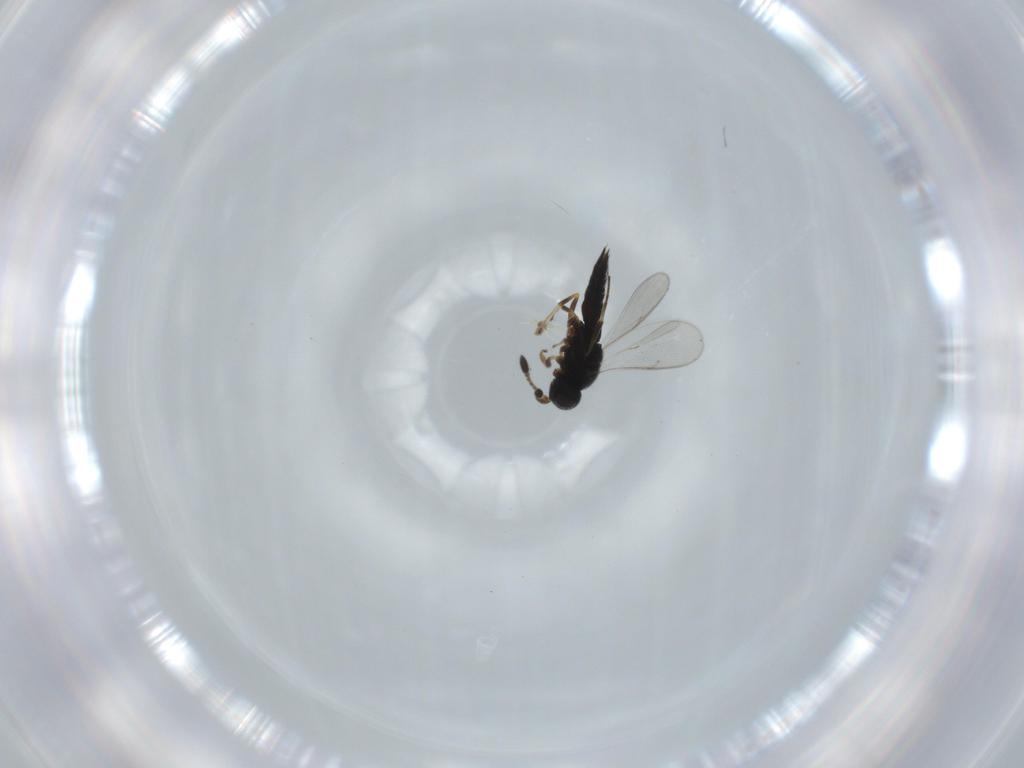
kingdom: Animalia
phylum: Arthropoda
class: Insecta
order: Hymenoptera
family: Scelionidae
